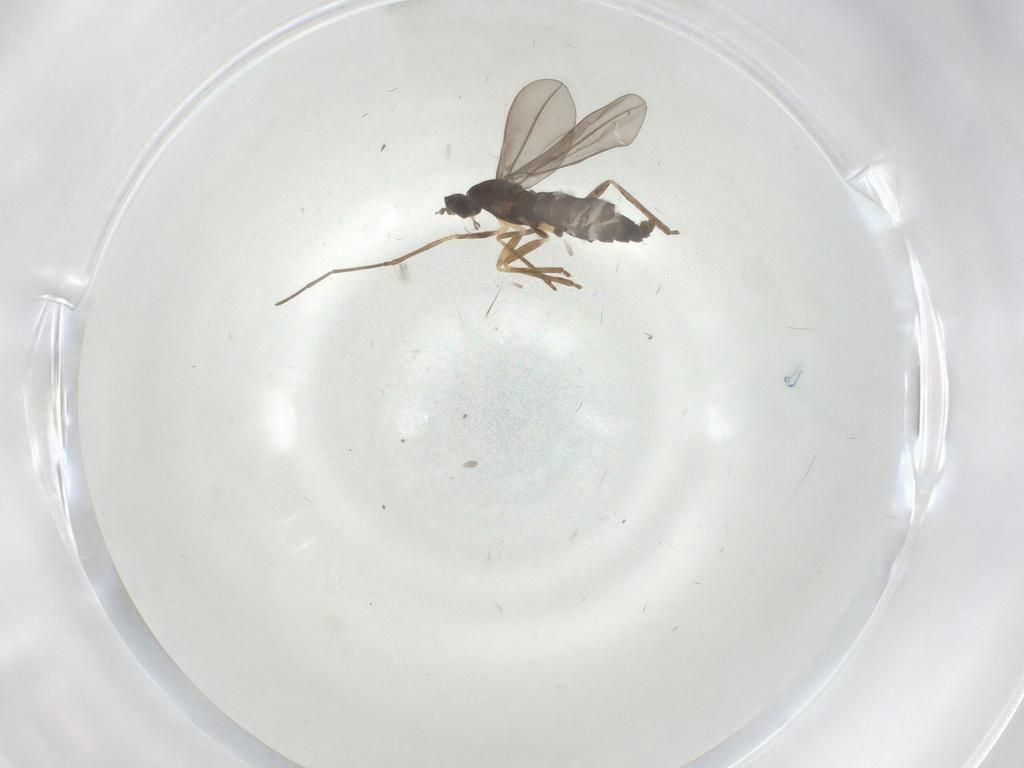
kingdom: Animalia
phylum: Arthropoda
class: Insecta
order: Diptera
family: Cecidomyiidae
